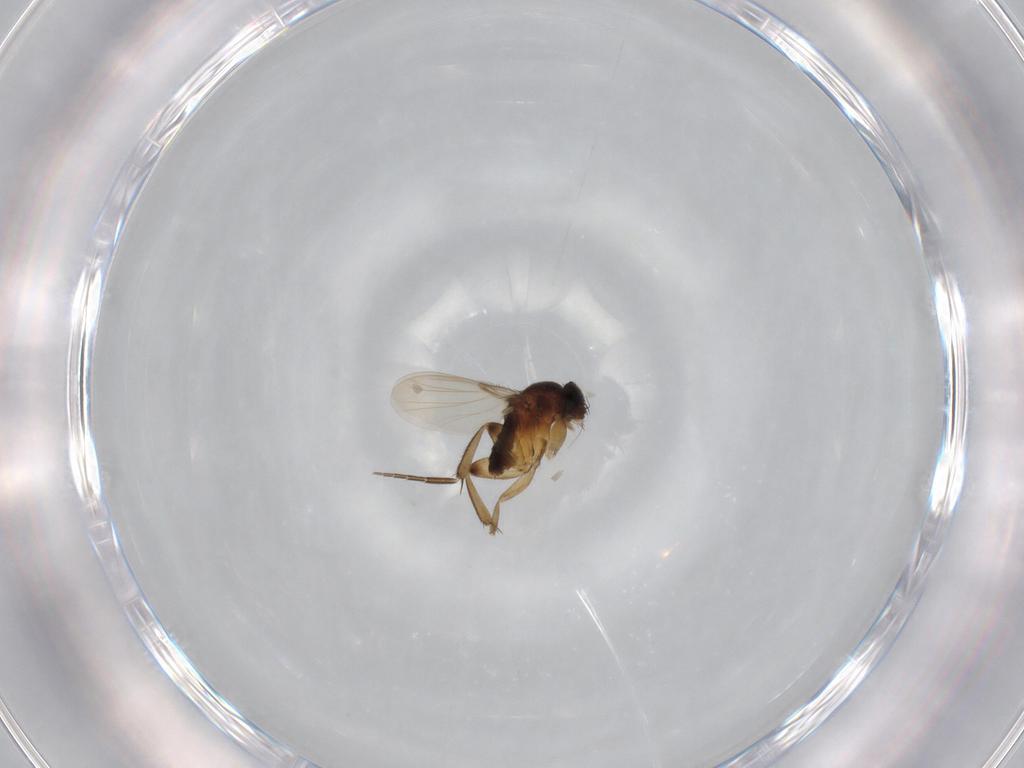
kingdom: Animalia
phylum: Arthropoda
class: Insecta
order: Diptera
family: Phoridae
